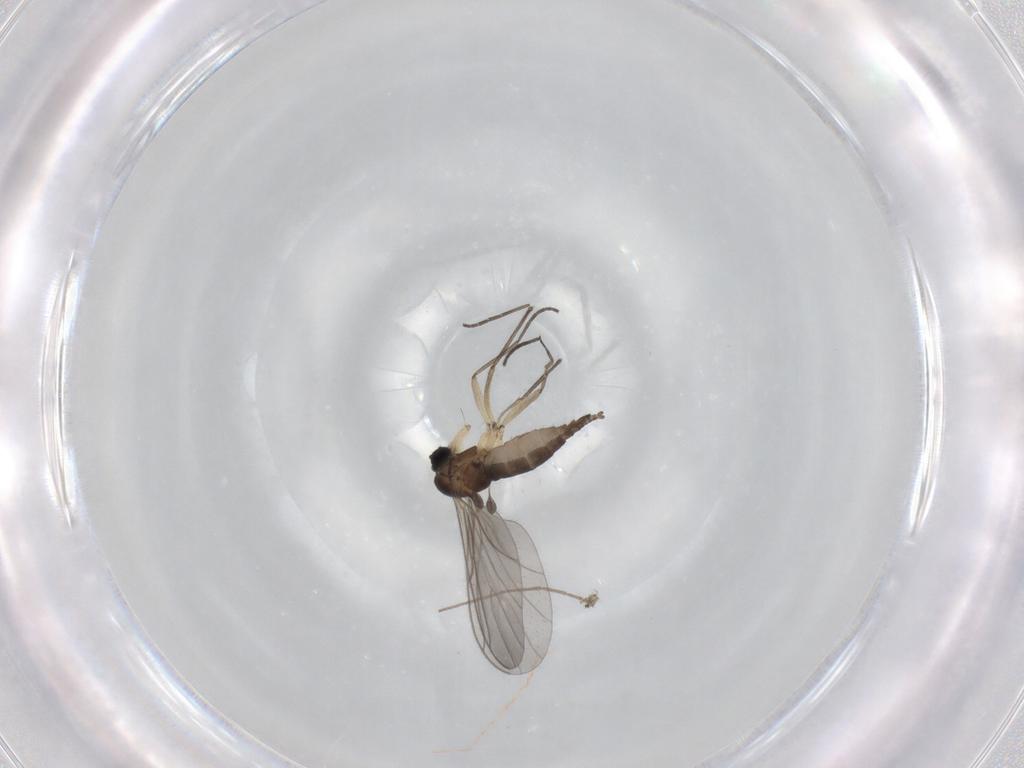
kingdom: Animalia
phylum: Arthropoda
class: Insecta
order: Diptera
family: Sciaridae
